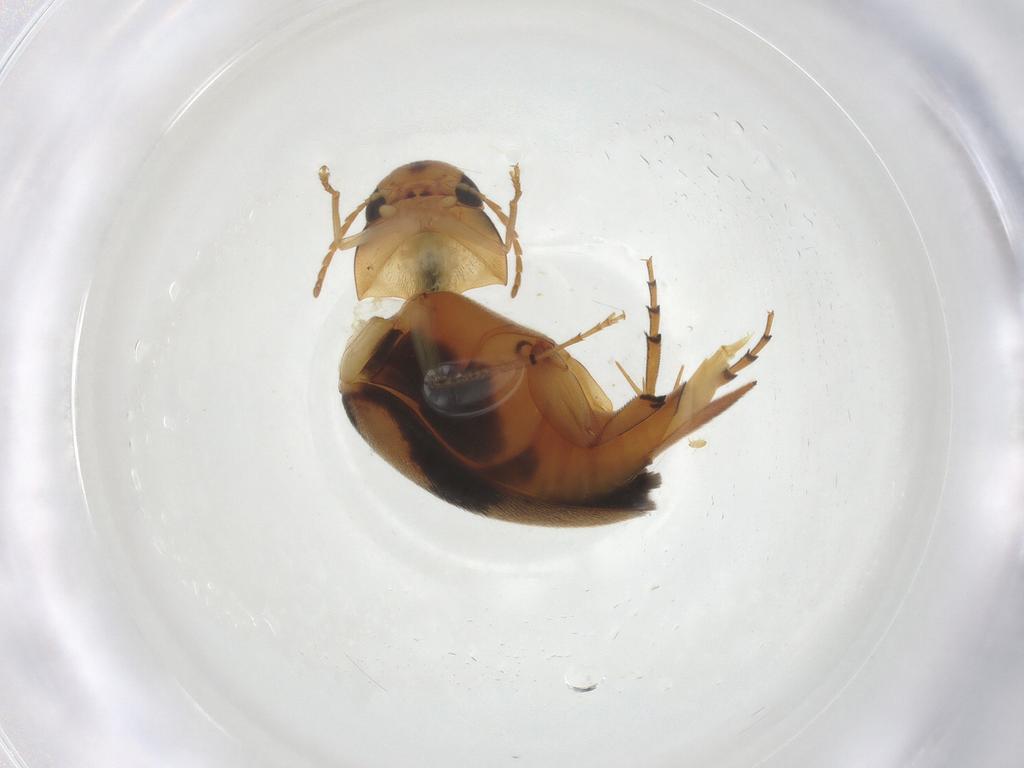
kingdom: Animalia
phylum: Arthropoda
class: Insecta
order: Coleoptera
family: Mordellidae
